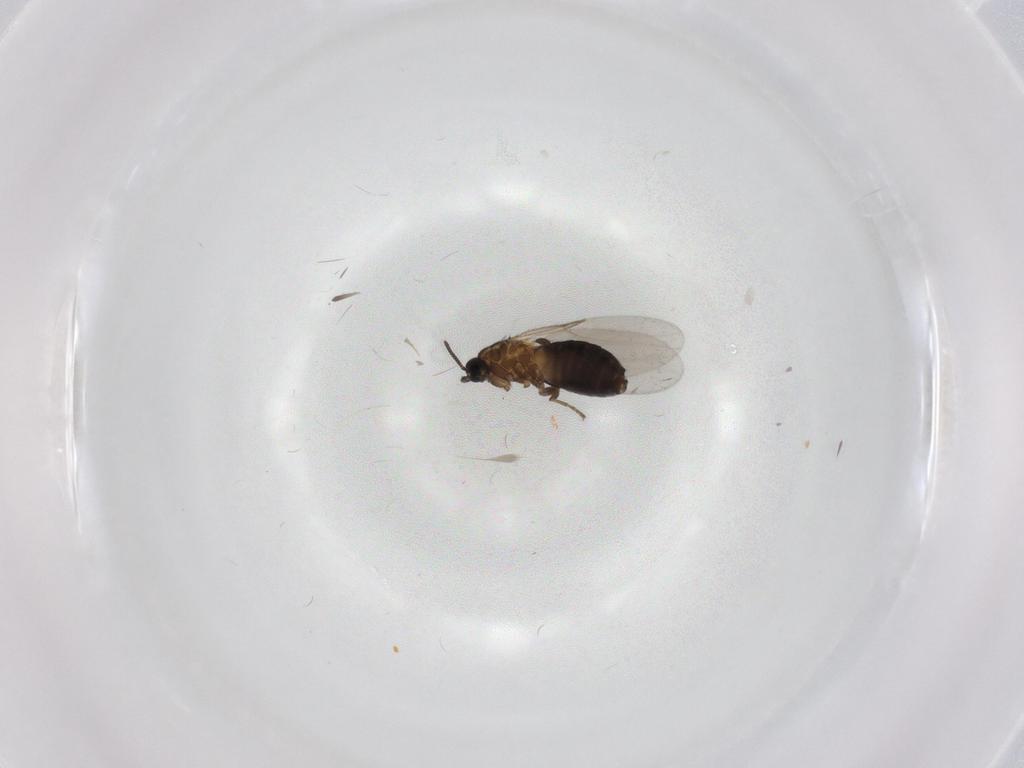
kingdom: Animalia
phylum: Arthropoda
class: Insecta
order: Diptera
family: Scatopsidae
